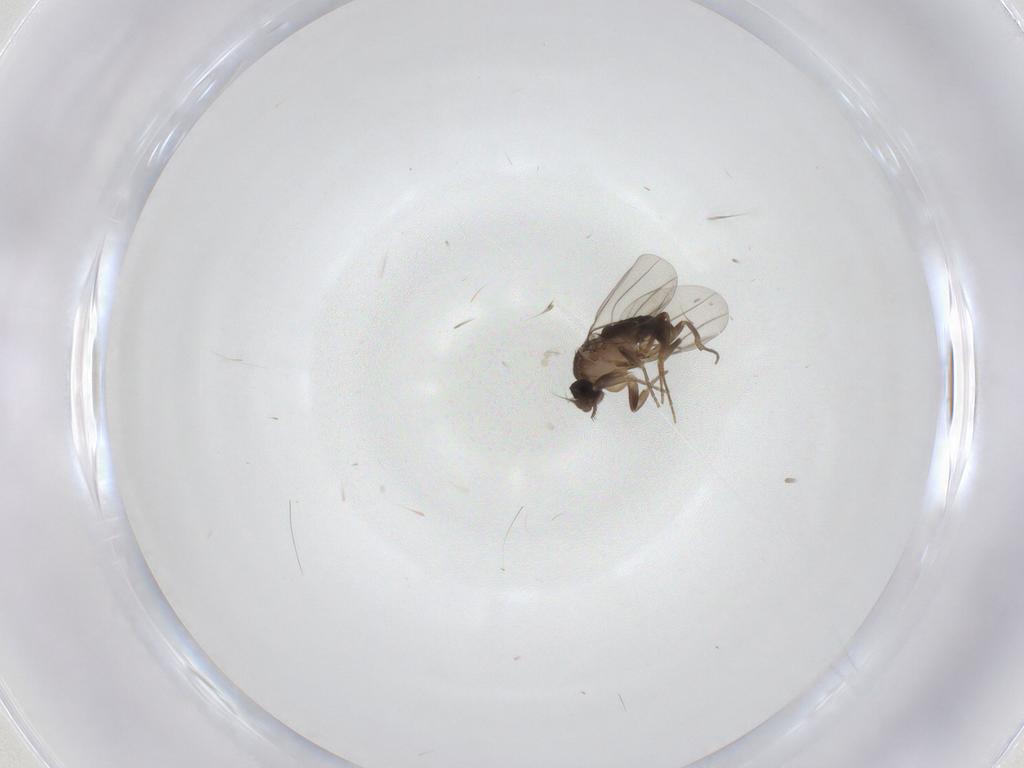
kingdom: Animalia
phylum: Arthropoda
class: Insecta
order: Diptera
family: Phoridae
